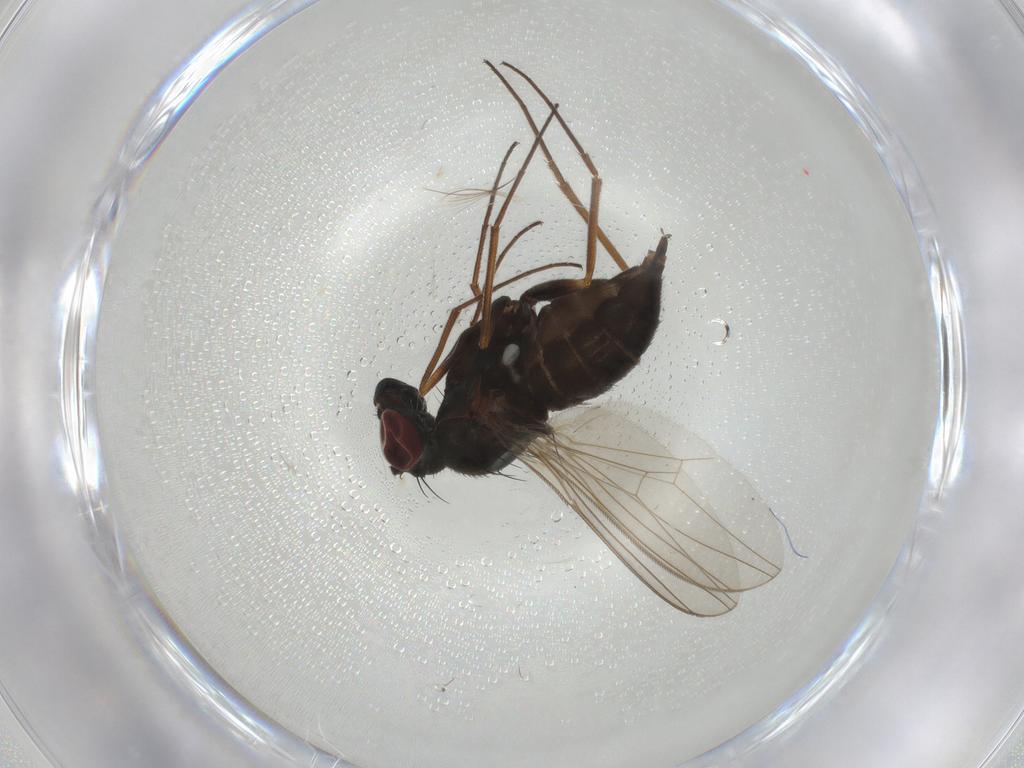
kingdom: Animalia
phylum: Arthropoda
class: Insecta
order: Diptera
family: Dolichopodidae
